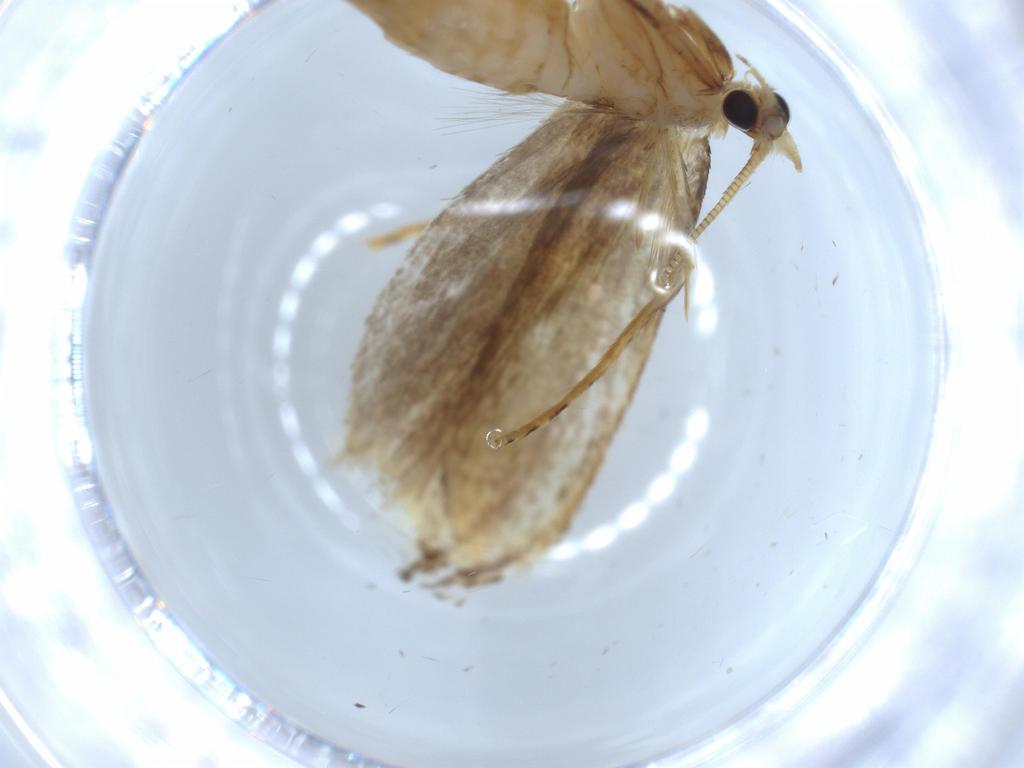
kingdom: Animalia
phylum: Arthropoda
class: Insecta
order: Lepidoptera
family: Tineidae
